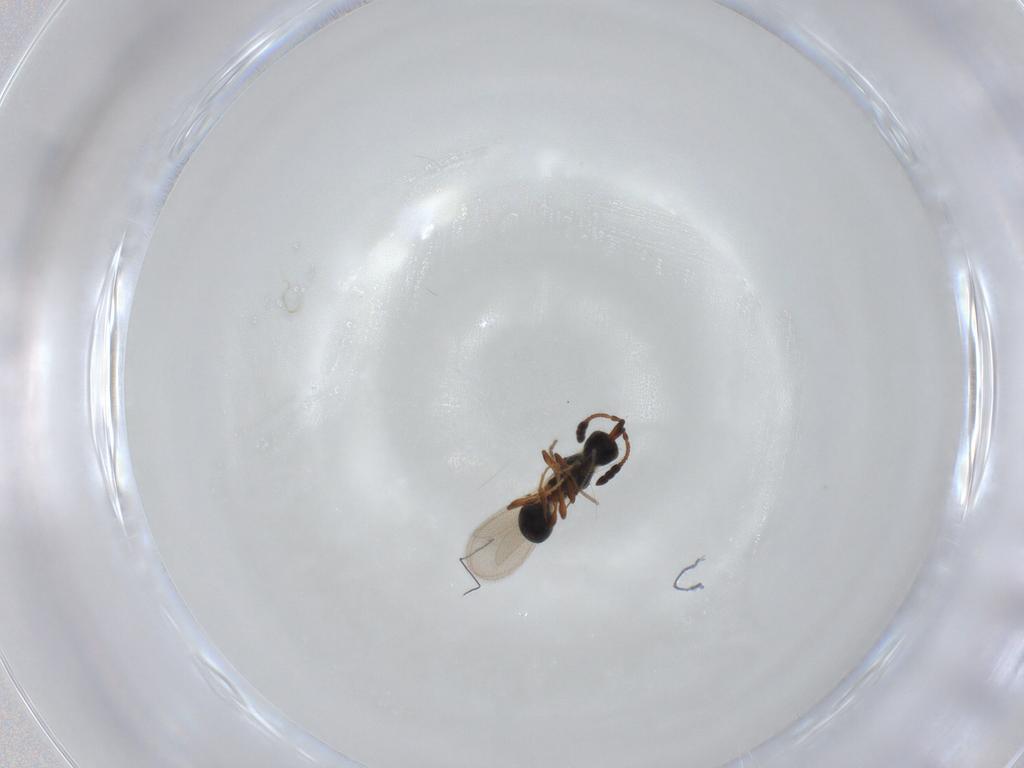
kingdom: Animalia
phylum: Arthropoda
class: Insecta
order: Hymenoptera
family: Diapriidae
